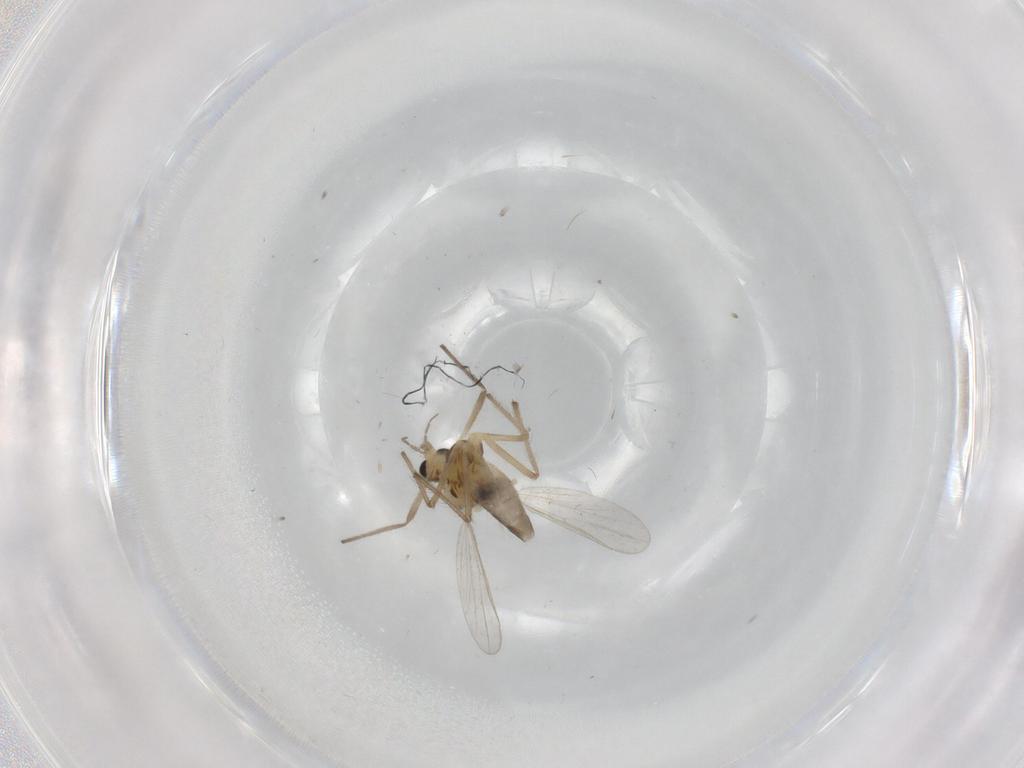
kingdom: Animalia
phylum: Arthropoda
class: Insecta
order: Diptera
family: Chironomidae
